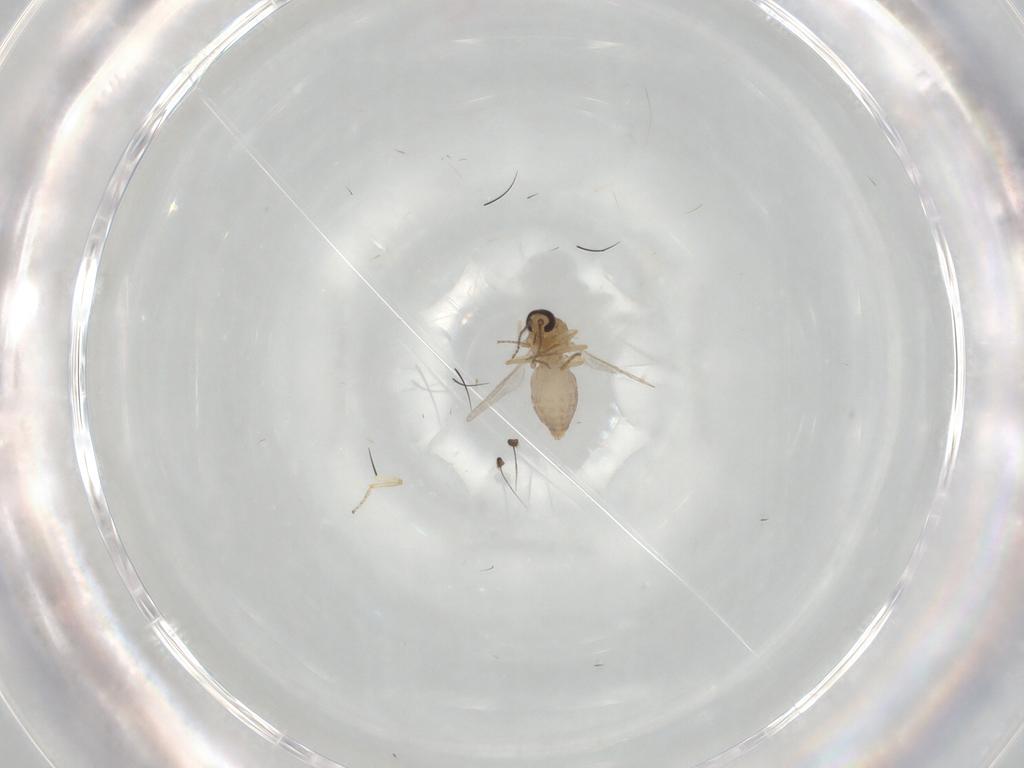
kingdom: Animalia
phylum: Arthropoda
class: Insecta
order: Diptera
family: Ceratopogonidae
